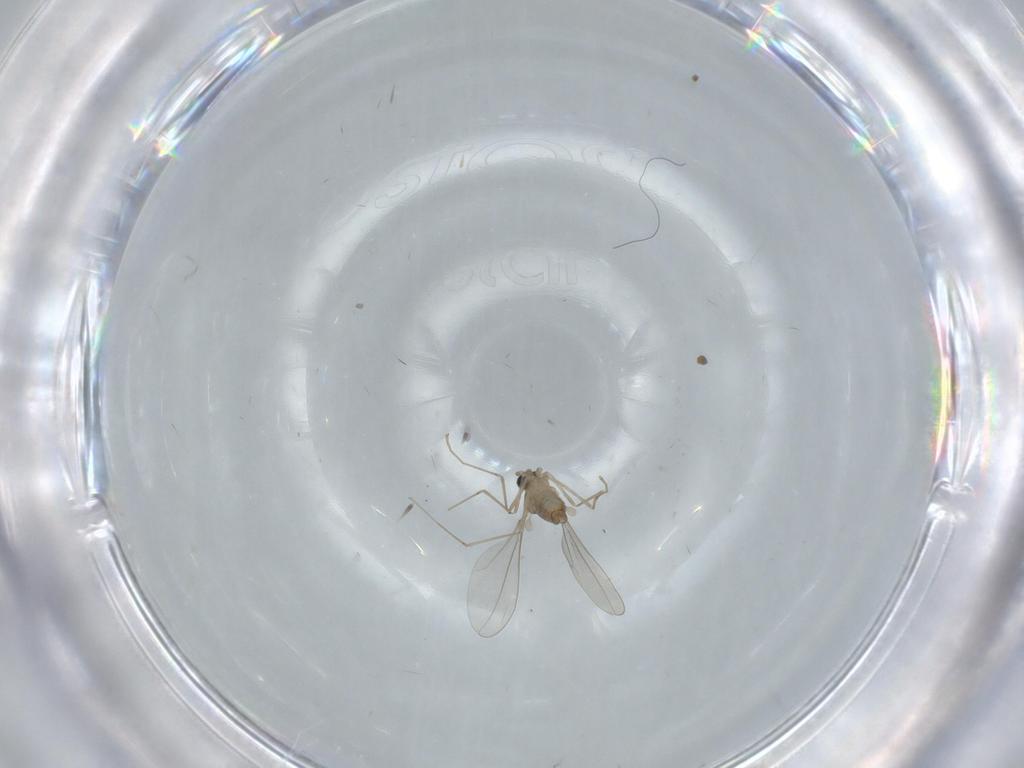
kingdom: Animalia
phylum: Arthropoda
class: Insecta
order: Diptera
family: Cecidomyiidae
